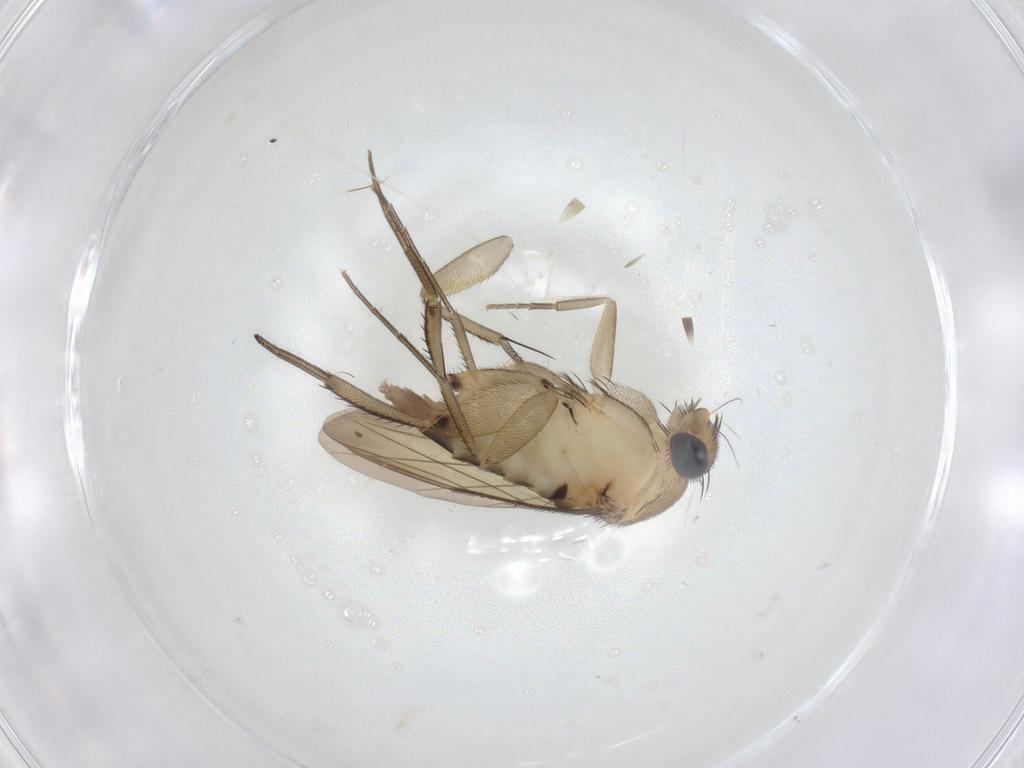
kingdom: Animalia
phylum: Arthropoda
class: Insecta
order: Diptera
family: Phoridae
